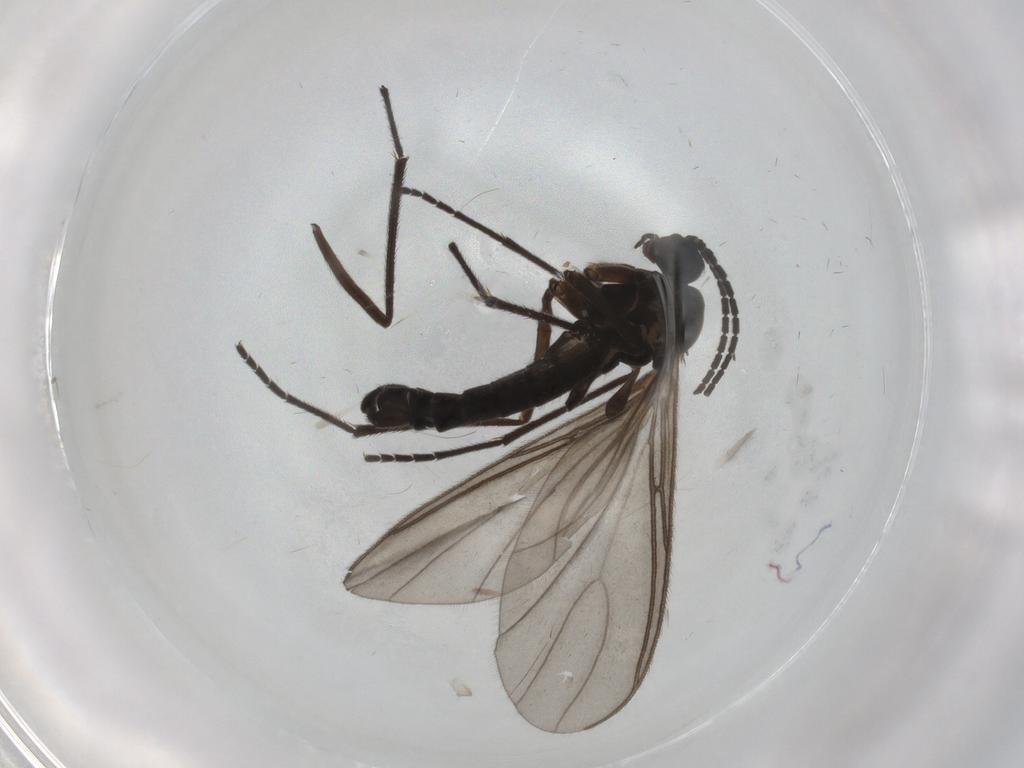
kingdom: Animalia
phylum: Arthropoda
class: Insecta
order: Diptera
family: Sciaridae
